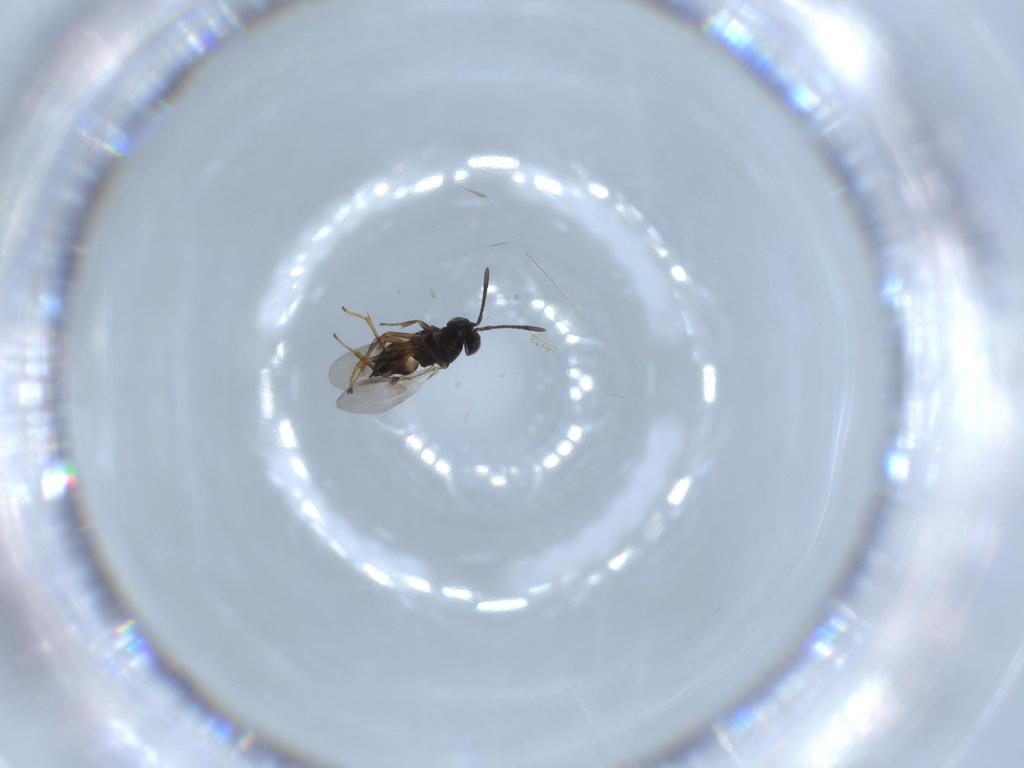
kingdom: Animalia
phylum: Arthropoda
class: Insecta
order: Hymenoptera
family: Encyrtidae
